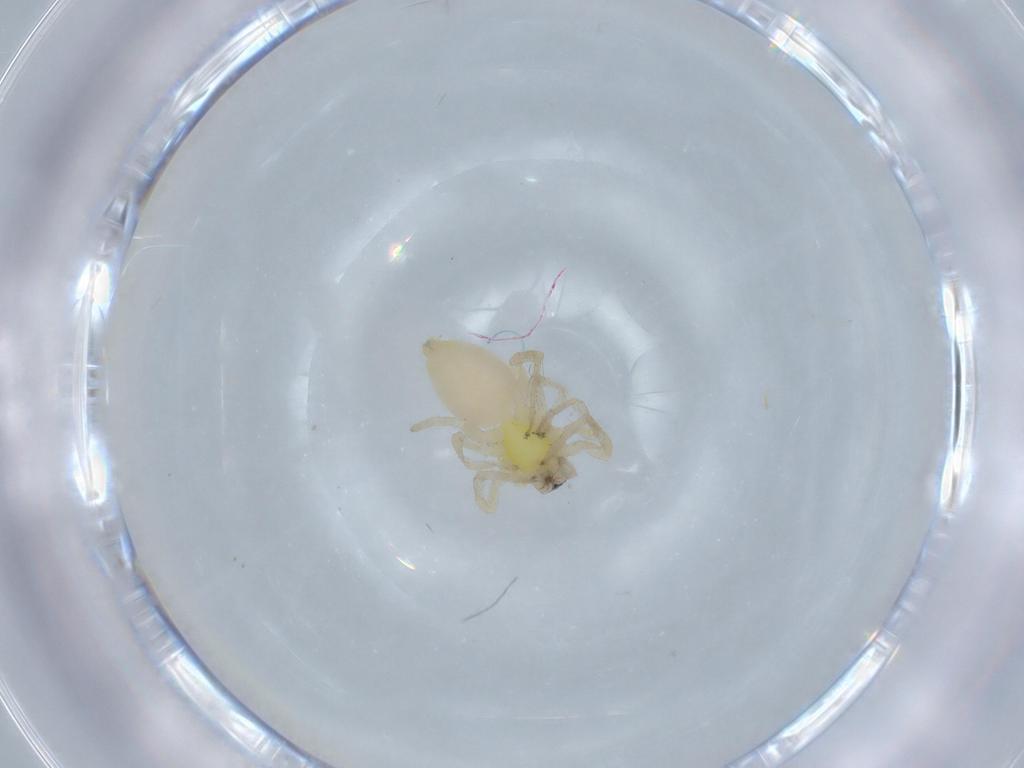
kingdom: Animalia
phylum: Arthropoda
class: Arachnida
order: Araneae
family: Anyphaenidae
